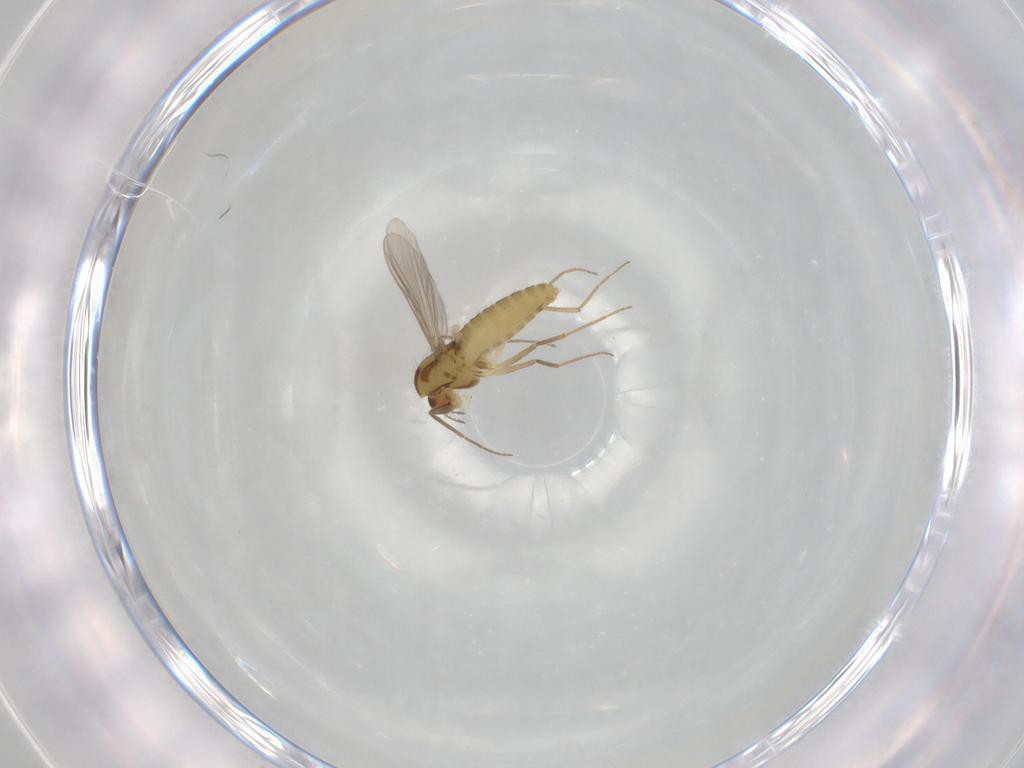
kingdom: Animalia
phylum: Arthropoda
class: Insecta
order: Diptera
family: Chironomidae
